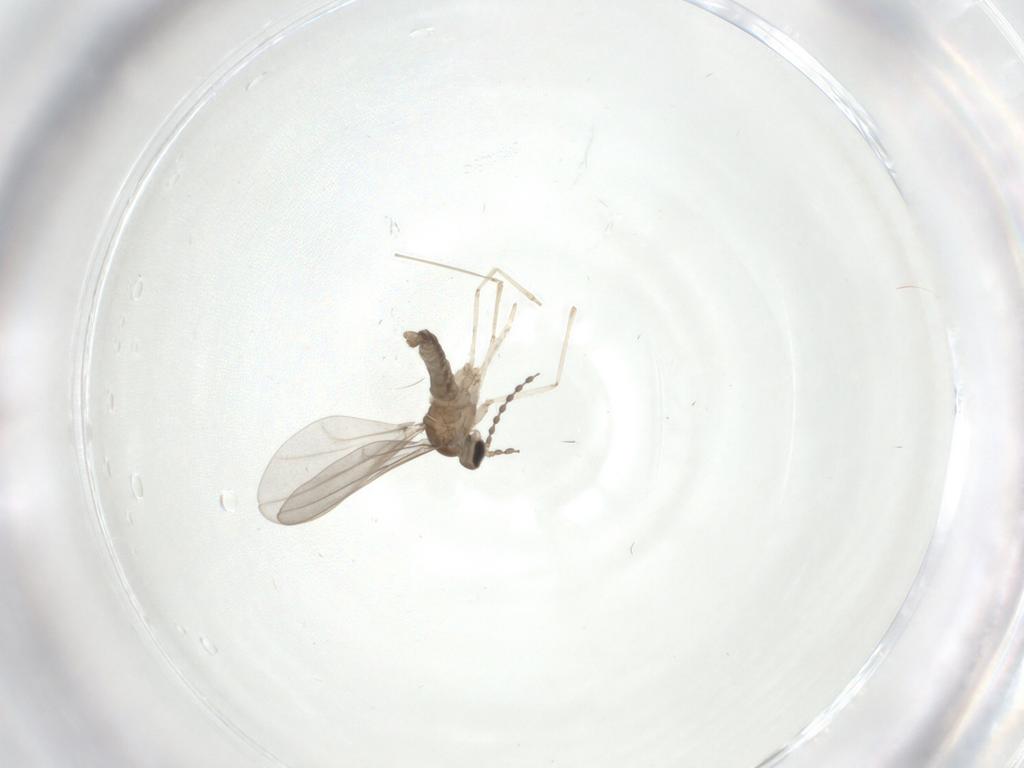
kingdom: Animalia
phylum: Arthropoda
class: Insecta
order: Diptera
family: Cecidomyiidae
